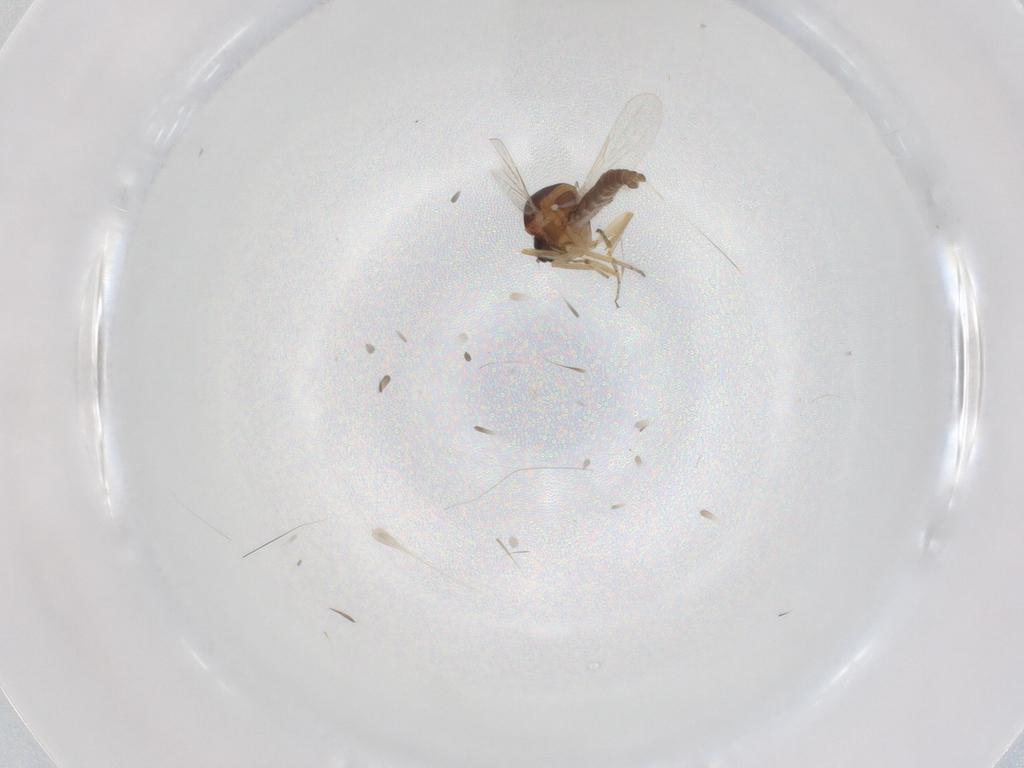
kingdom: Animalia
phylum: Arthropoda
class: Insecta
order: Diptera
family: Ceratopogonidae
